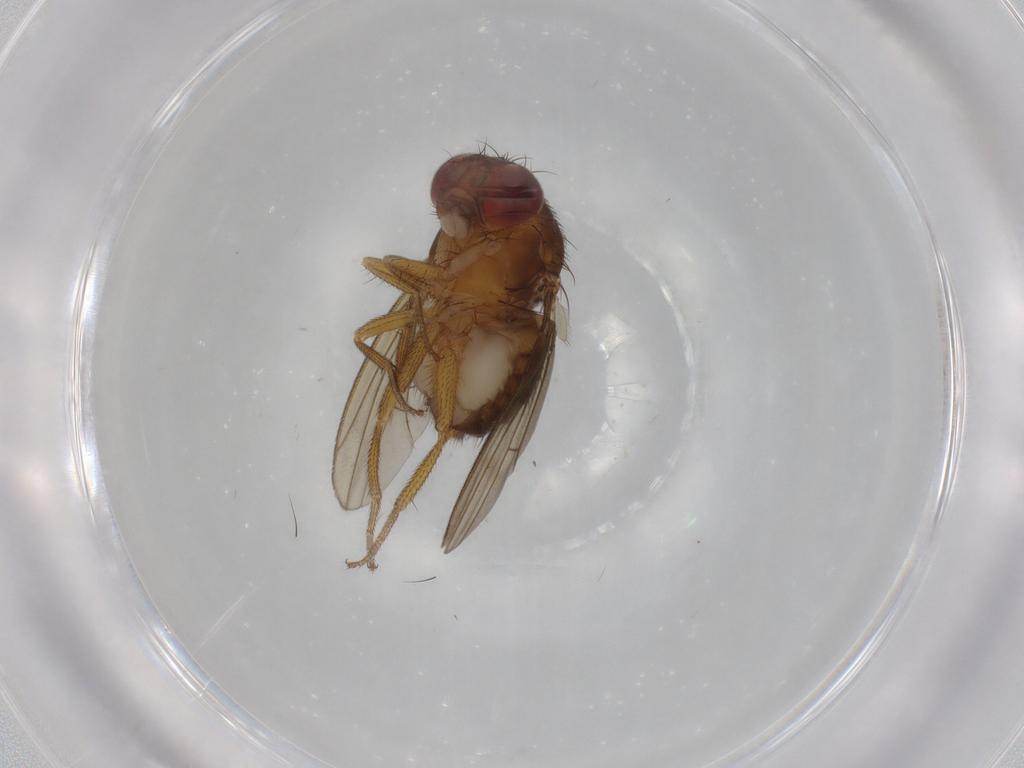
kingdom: Animalia
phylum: Arthropoda
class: Insecta
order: Diptera
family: Drosophilidae
